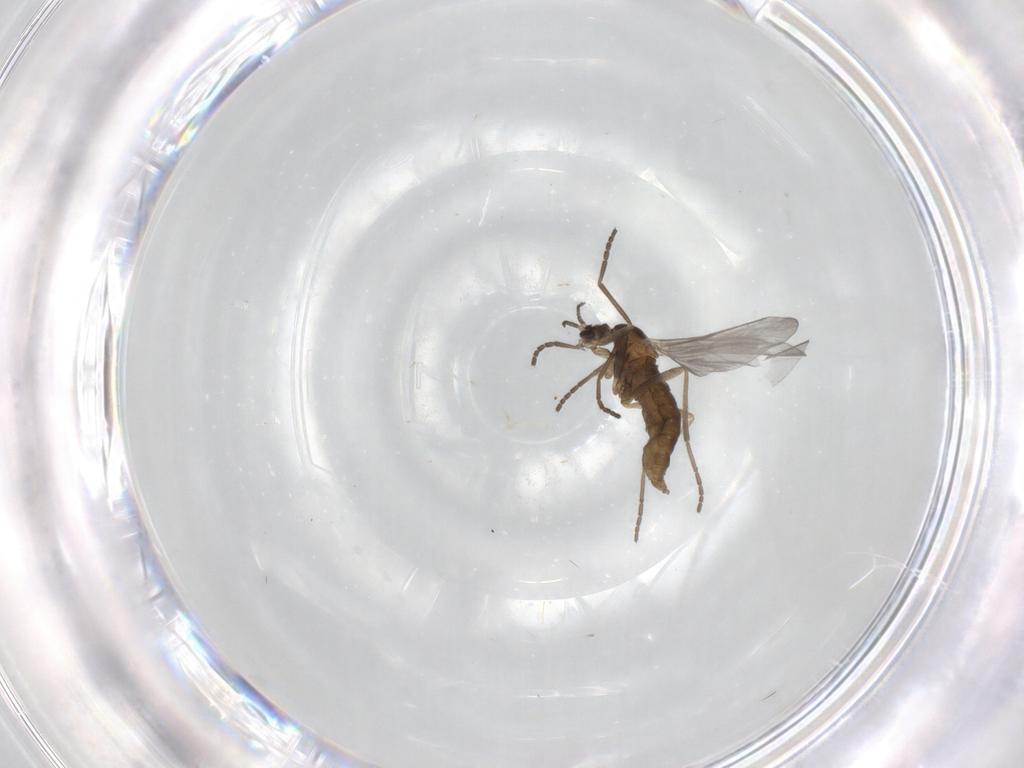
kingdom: Animalia
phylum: Arthropoda
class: Insecta
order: Diptera
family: Cecidomyiidae
